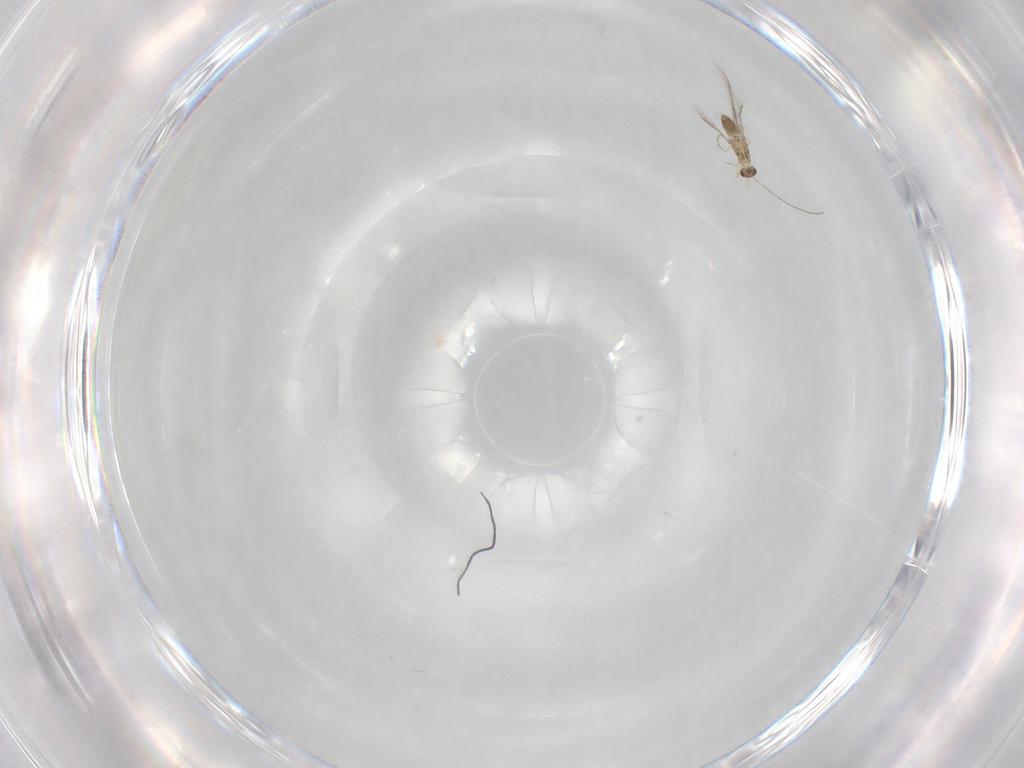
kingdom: Animalia
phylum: Arthropoda
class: Insecta
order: Hymenoptera
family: Mymaridae
